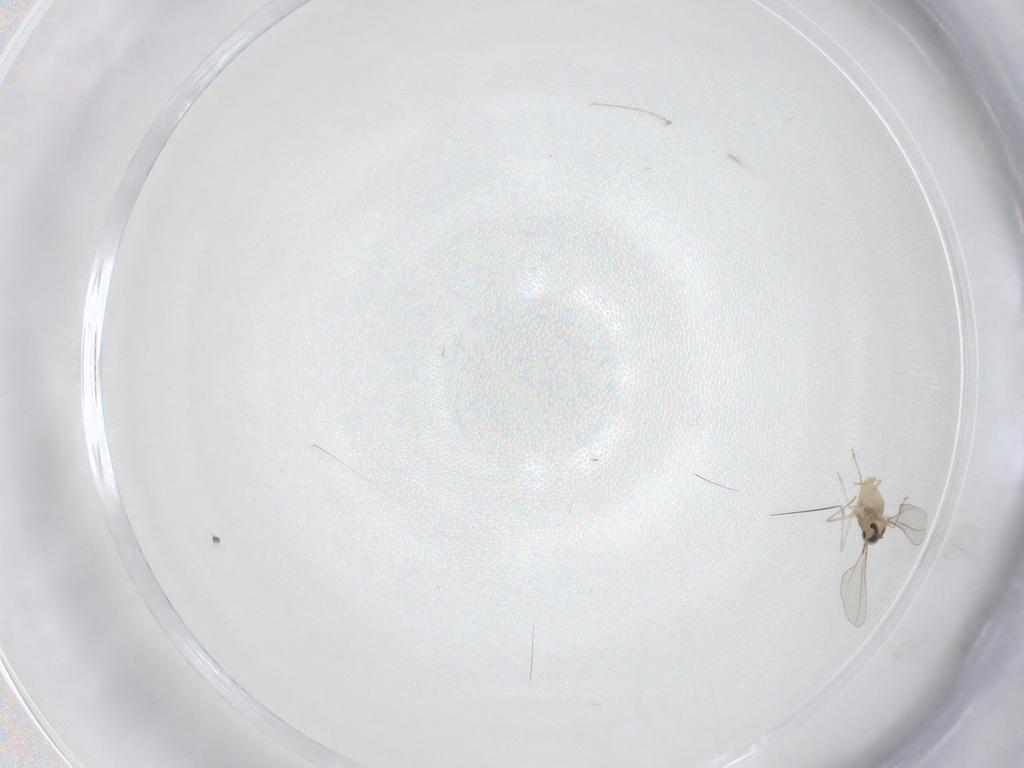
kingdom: Animalia
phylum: Arthropoda
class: Insecta
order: Diptera
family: Cecidomyiidae
